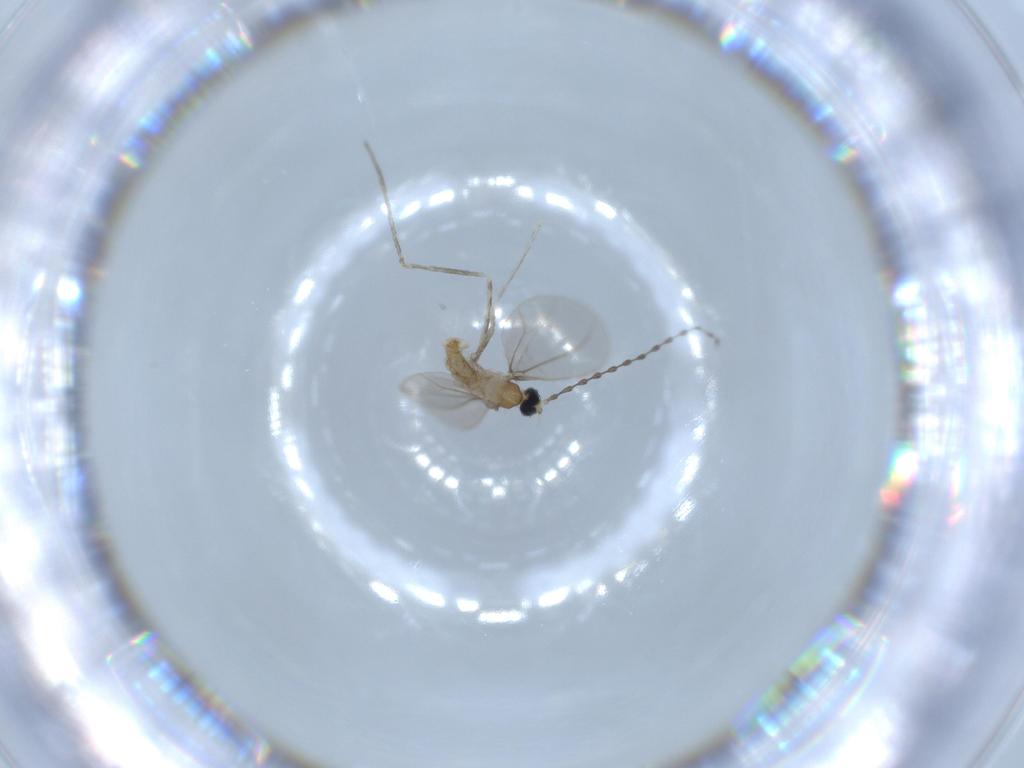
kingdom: Animalia
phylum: Arthropoda
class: Insecta
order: Diptera
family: Cecidomyiidae
